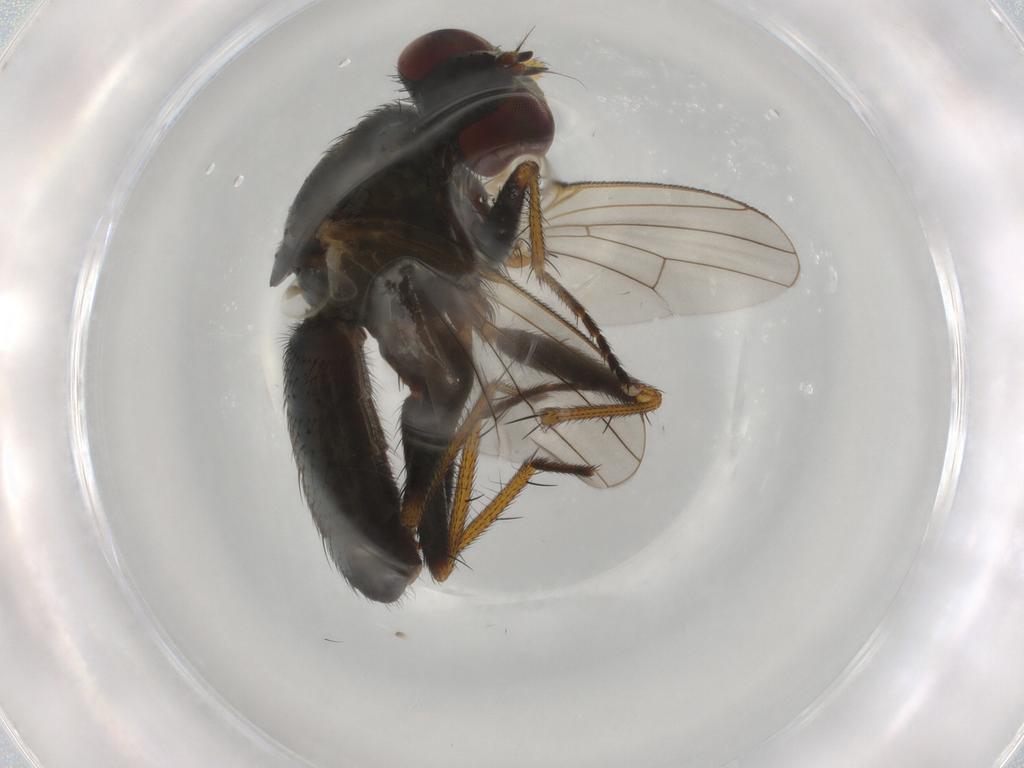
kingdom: Animalia
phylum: Arthropoda
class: Insecta
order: Diptera
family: Muscidae
